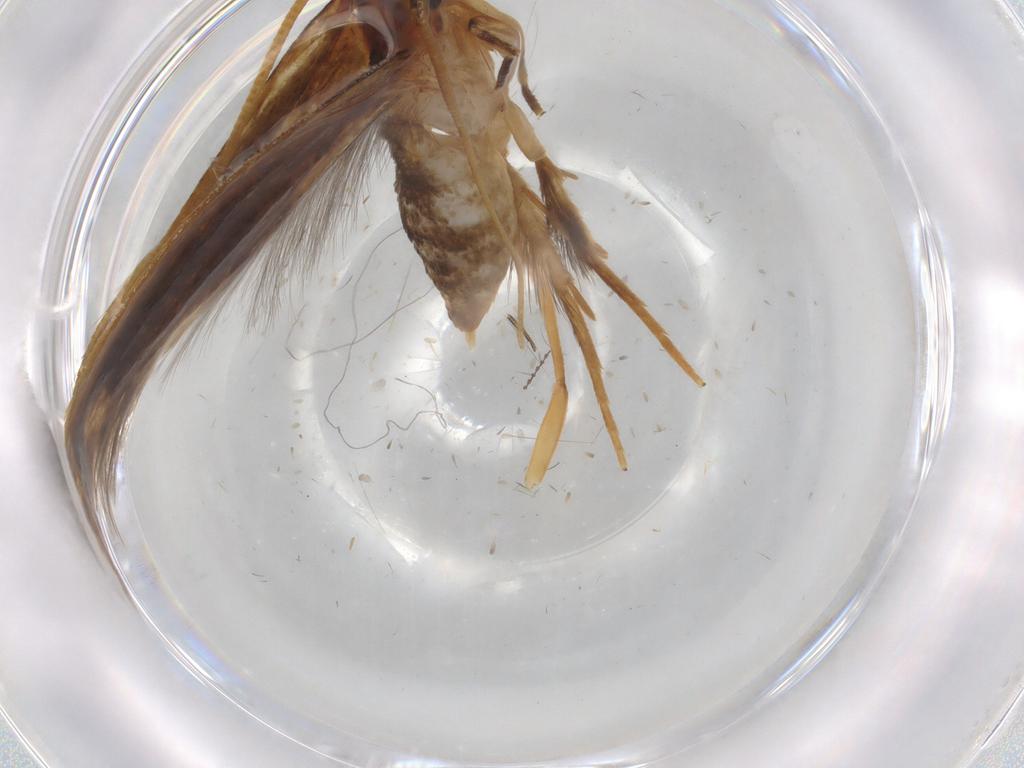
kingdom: Animalia
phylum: Arthropoda
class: Insecta
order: Lepidoptera
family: Tineidae
